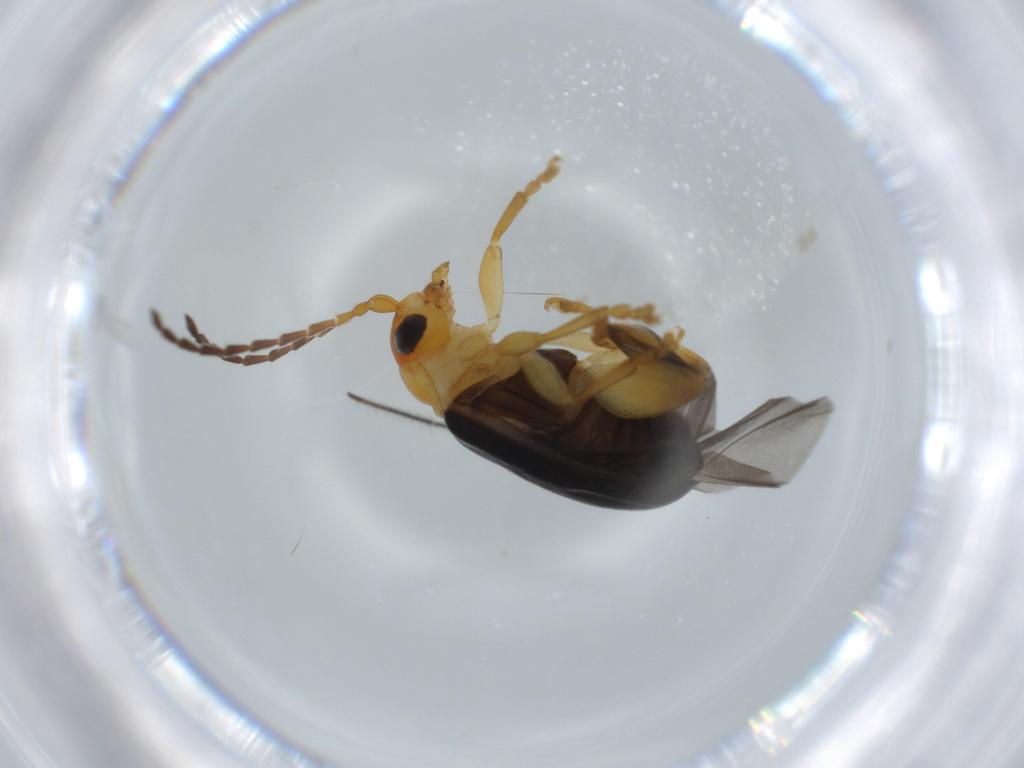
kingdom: Animalia
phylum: Arthropoda
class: Insecta
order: Coleoptera
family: Chrysomelidae
